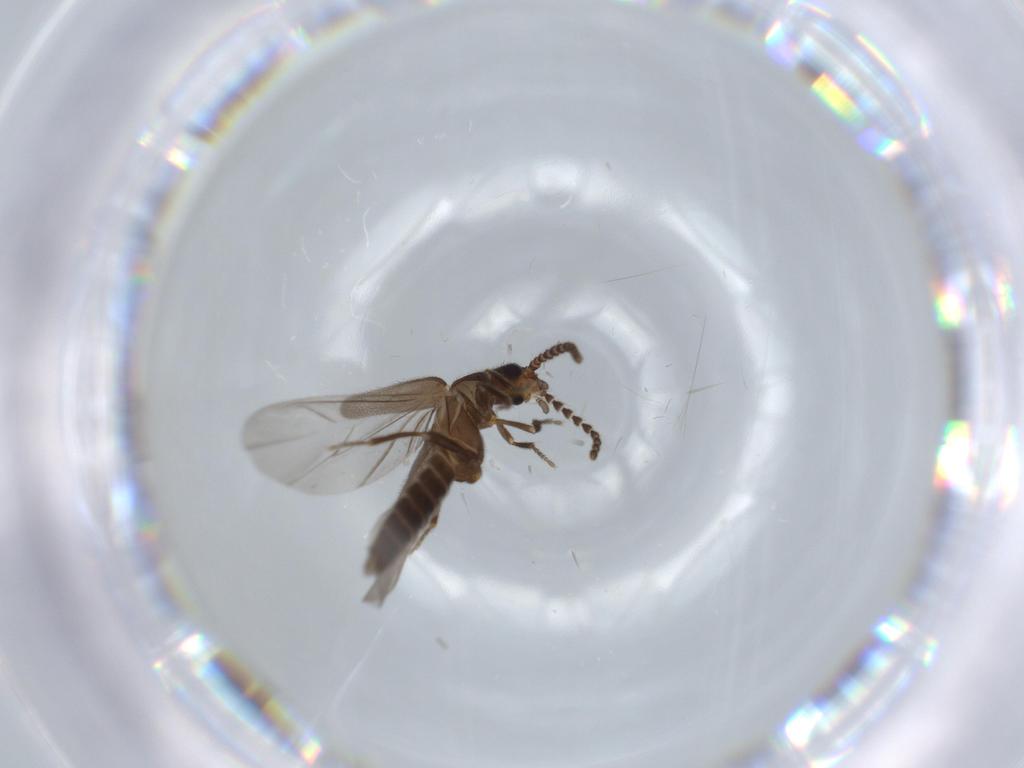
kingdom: Animalia
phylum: Arthropoda
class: Insecta
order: Coleoptera
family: Omethidae
